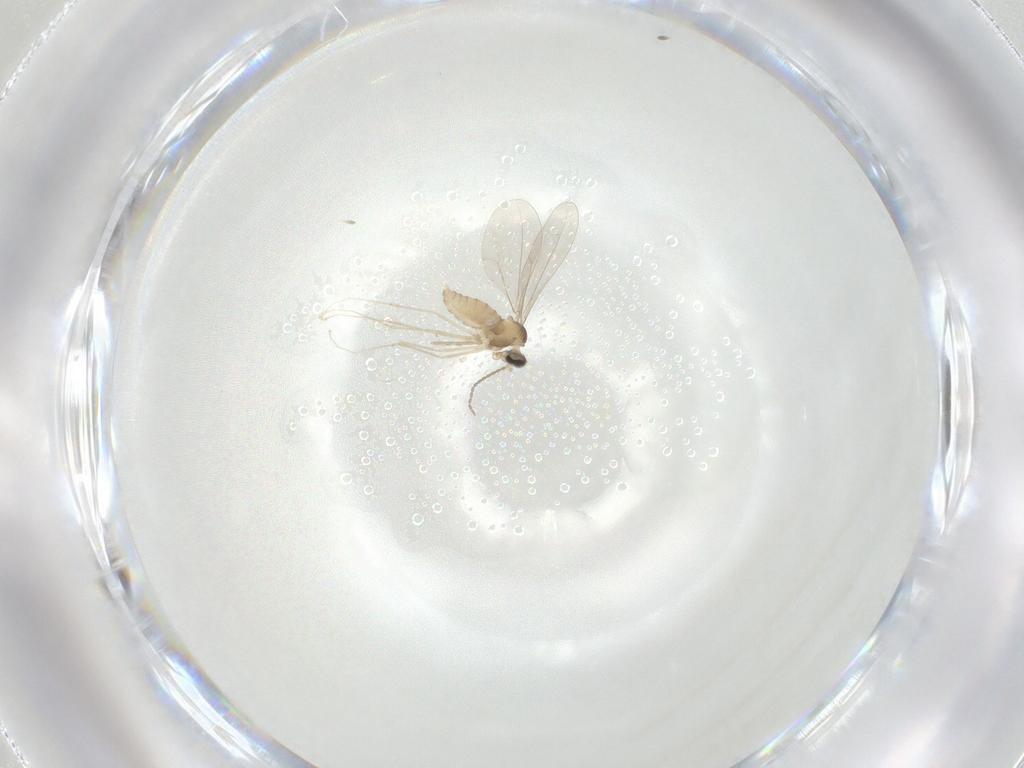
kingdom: Animalia
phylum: Arthropoda
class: Insecta
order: Diptera
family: Cecidomyiidae
